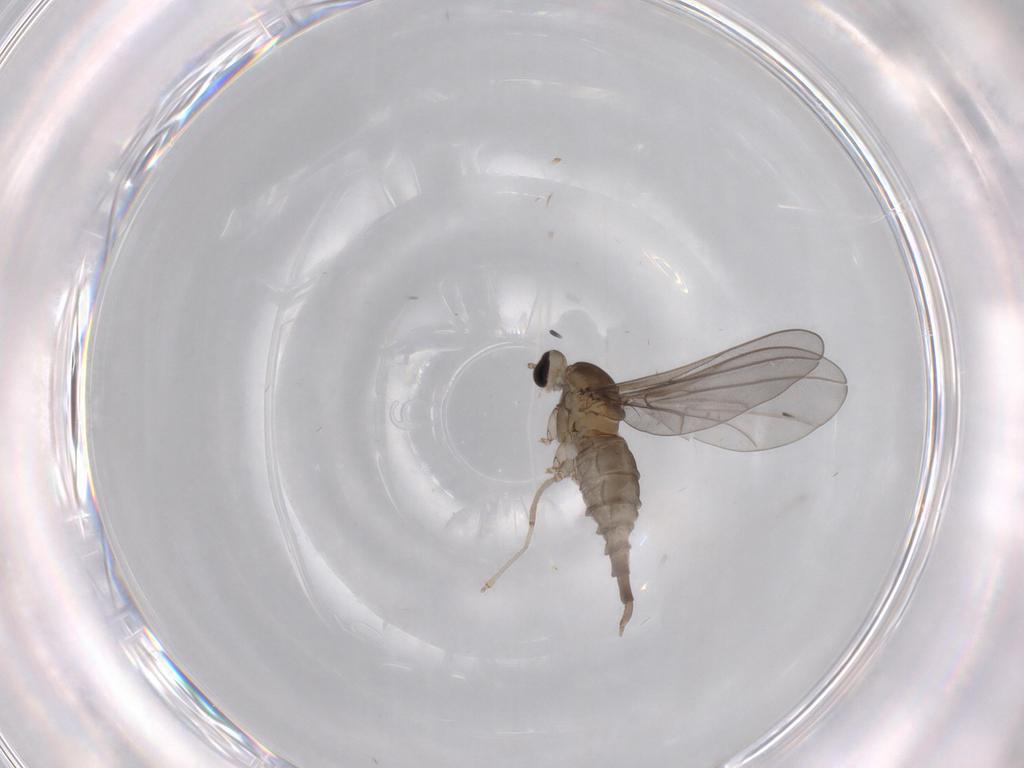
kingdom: Animalia
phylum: Arthropoda
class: Insecta
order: Diptera
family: Cecidomyiidae
